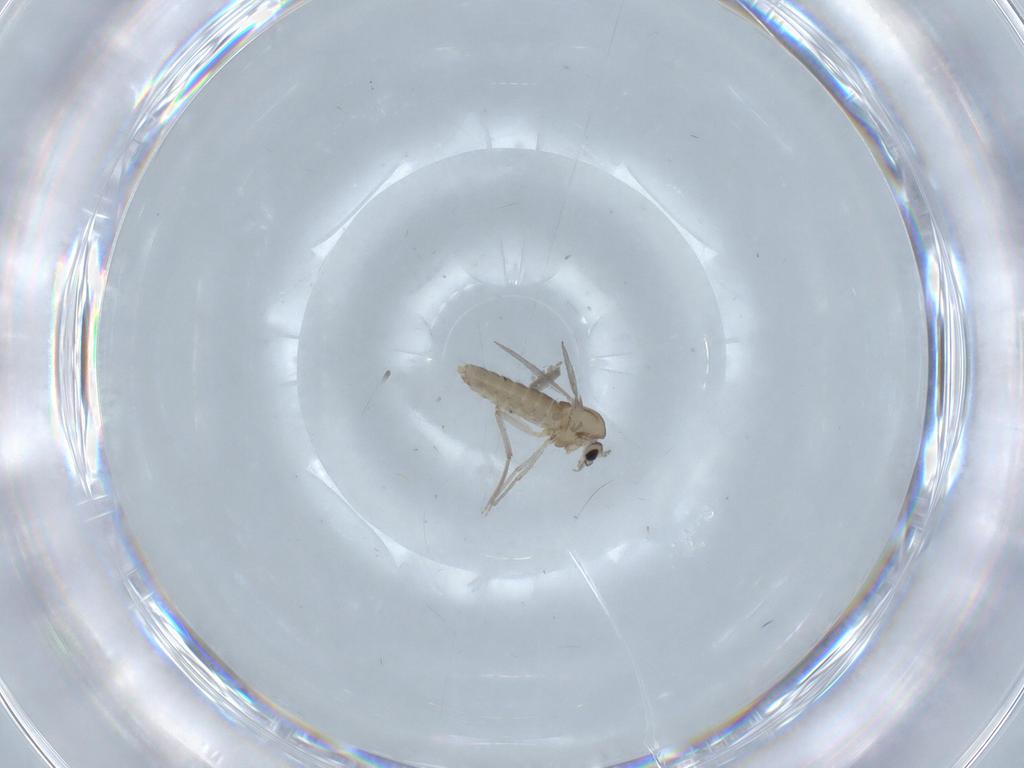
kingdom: Animalia
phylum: Arthropoda
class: Insecta
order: Diptera
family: Chironomidae
